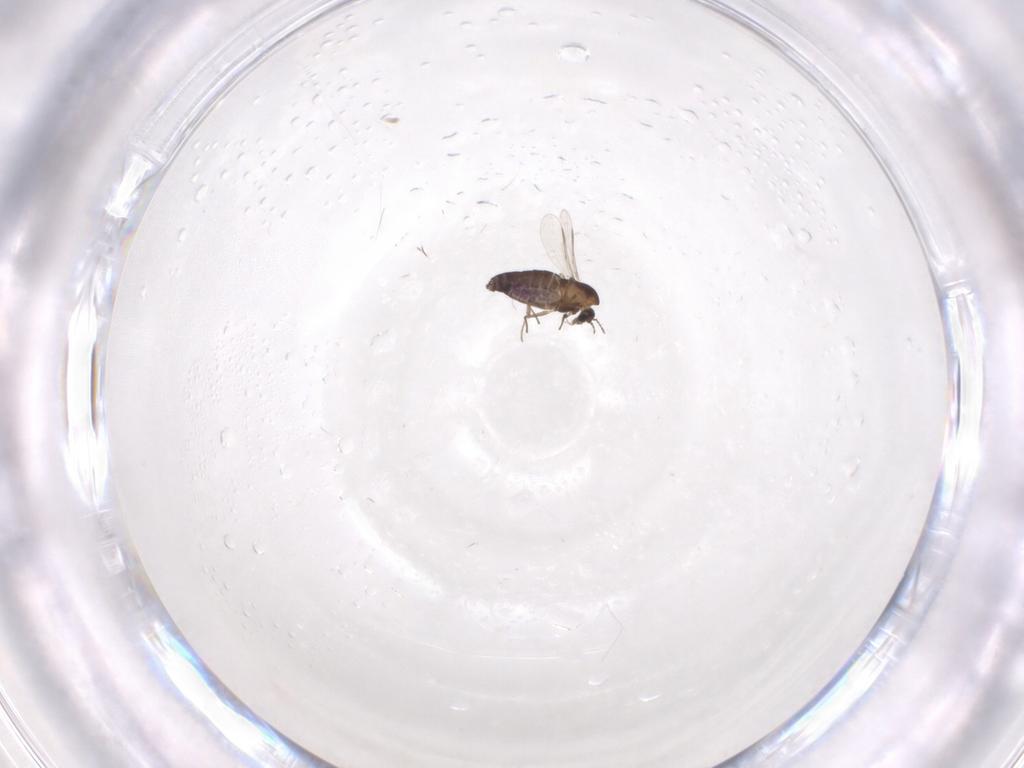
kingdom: Animalia
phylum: Arthropoda
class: Insecta
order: Diptera
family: Chironomidae
